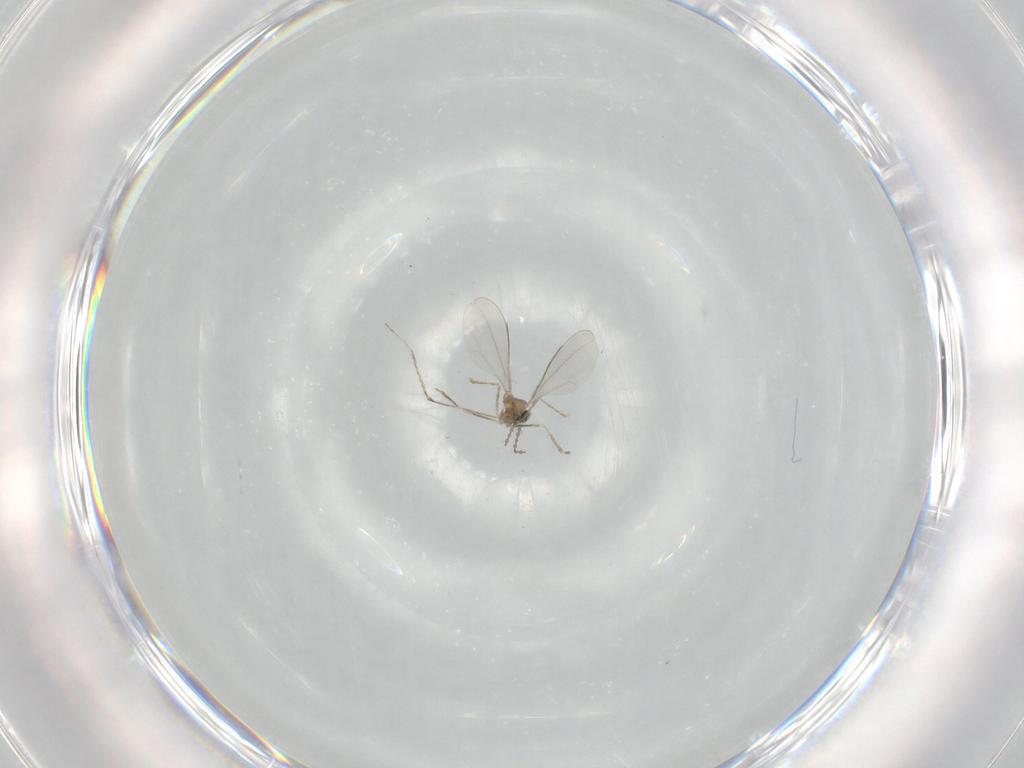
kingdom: Animalia
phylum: Arthropoda
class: Insecta
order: Diptera
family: Cecidomyiidae
